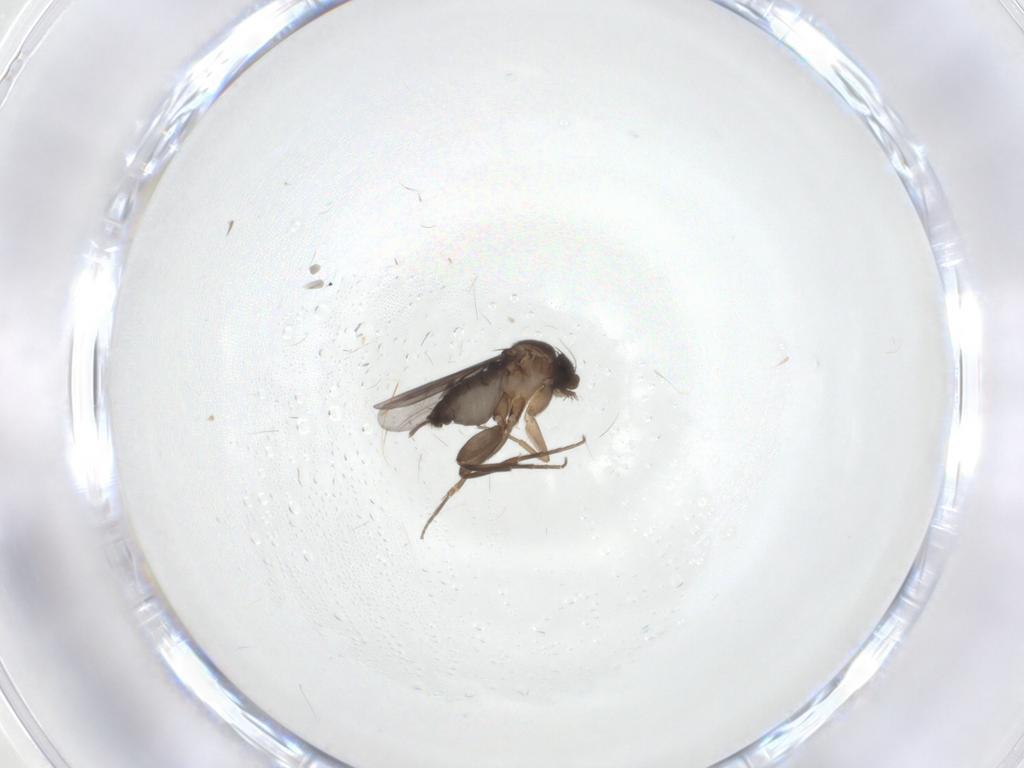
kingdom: Animalia
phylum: Arthropoda
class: Insecta
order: Diptera
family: Phoridae
